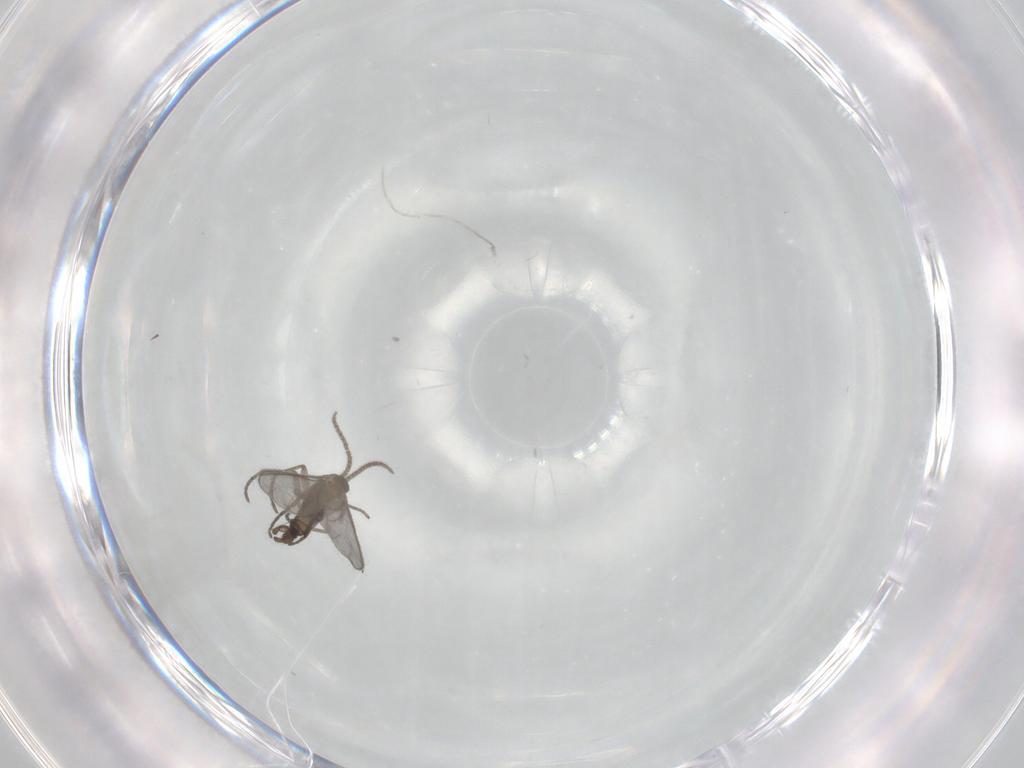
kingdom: Animalia
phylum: Arthropoda
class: Insecta
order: Diptera
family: Sciaridae
